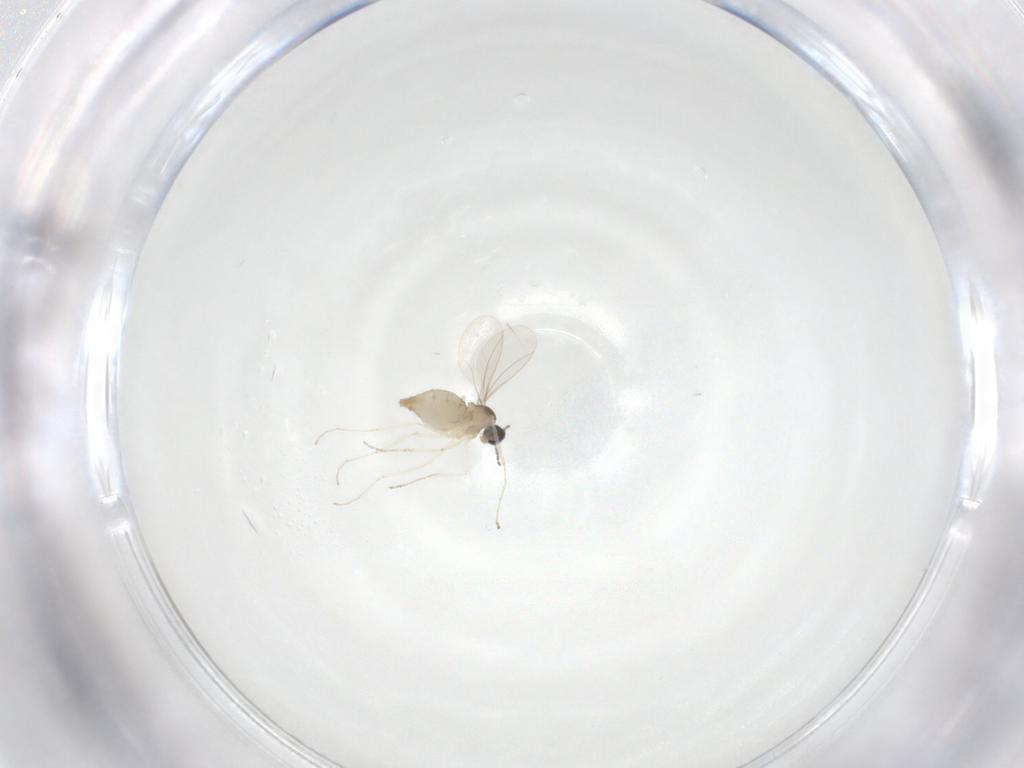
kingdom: Animalia
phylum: Arthropoda
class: Insecta
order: Diptera
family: Cecidomyiidae
